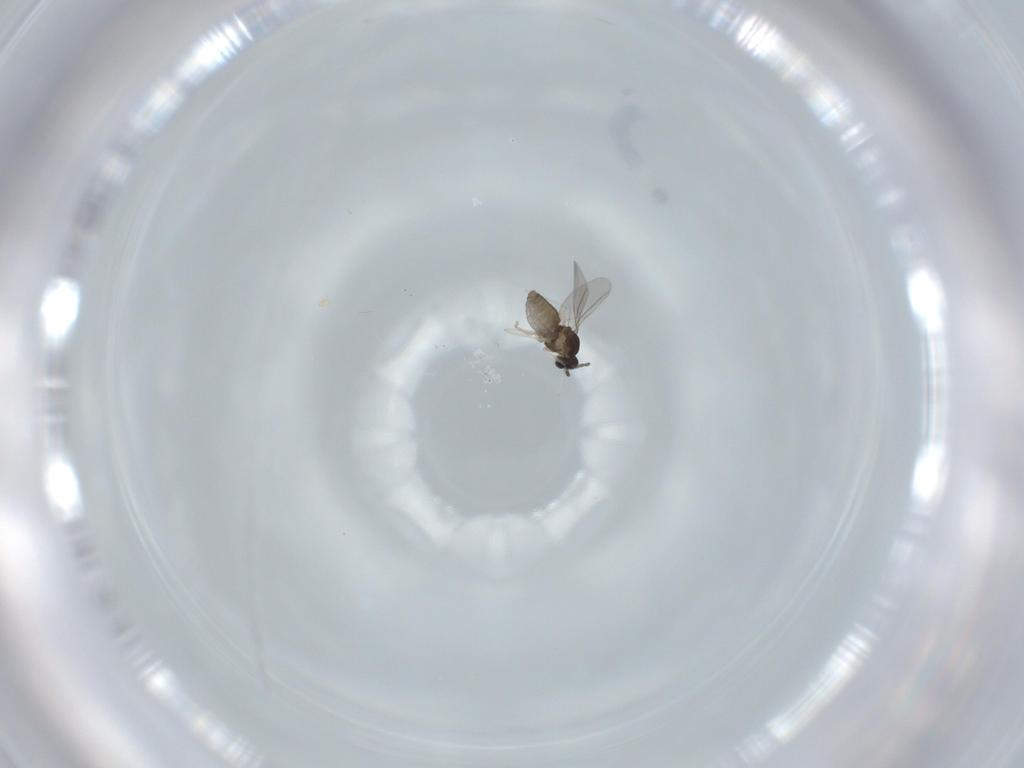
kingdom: Animalia
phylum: Arthropoda
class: Insecta
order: Diptera
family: Cecidomyiidae
